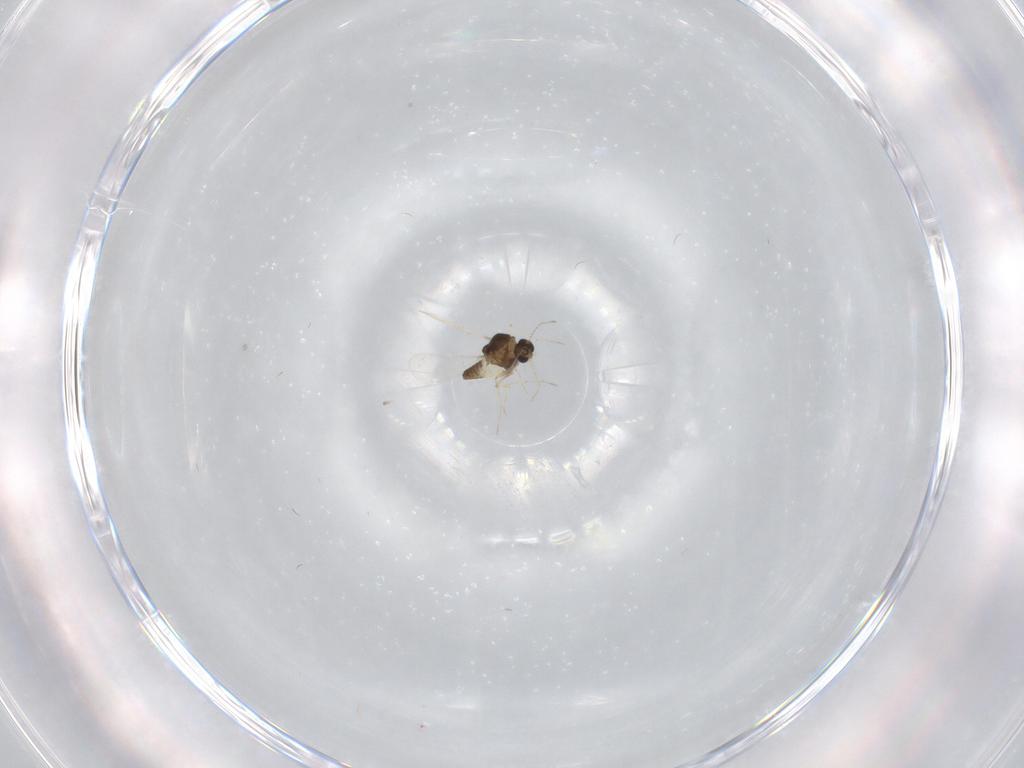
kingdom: Animalia
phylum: Arthropoda
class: Insecta
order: Diptera
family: Chironomidae
